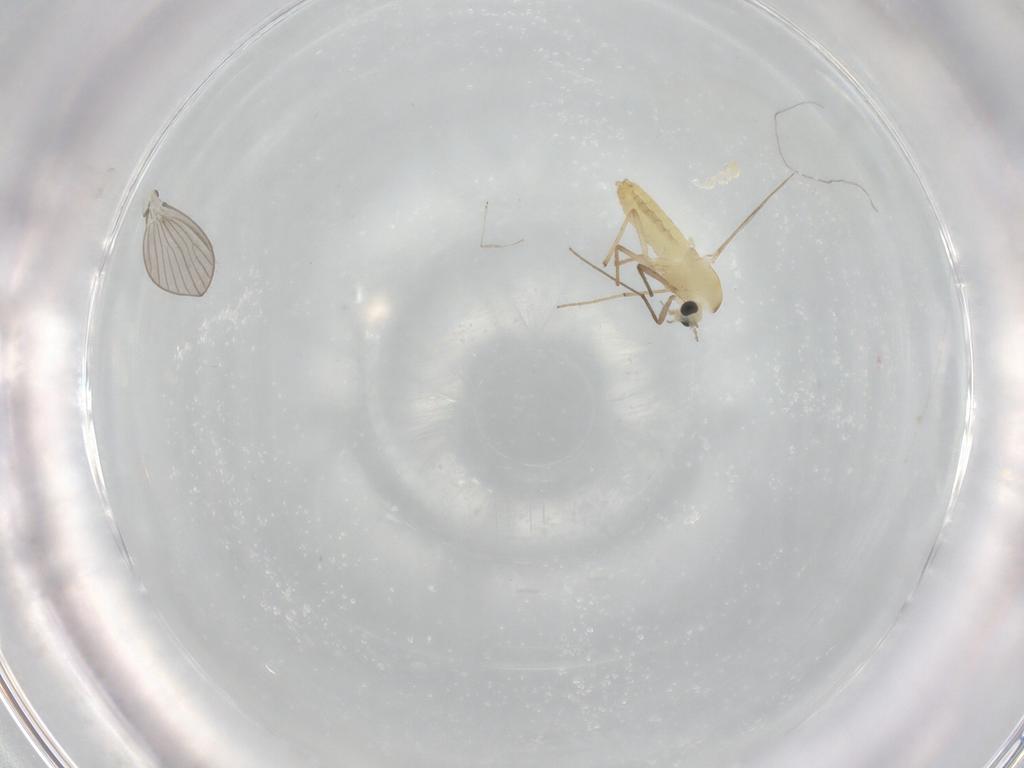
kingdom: Animalia
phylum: Arthropoda
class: Insecta
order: Diptera
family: Chironomidae
